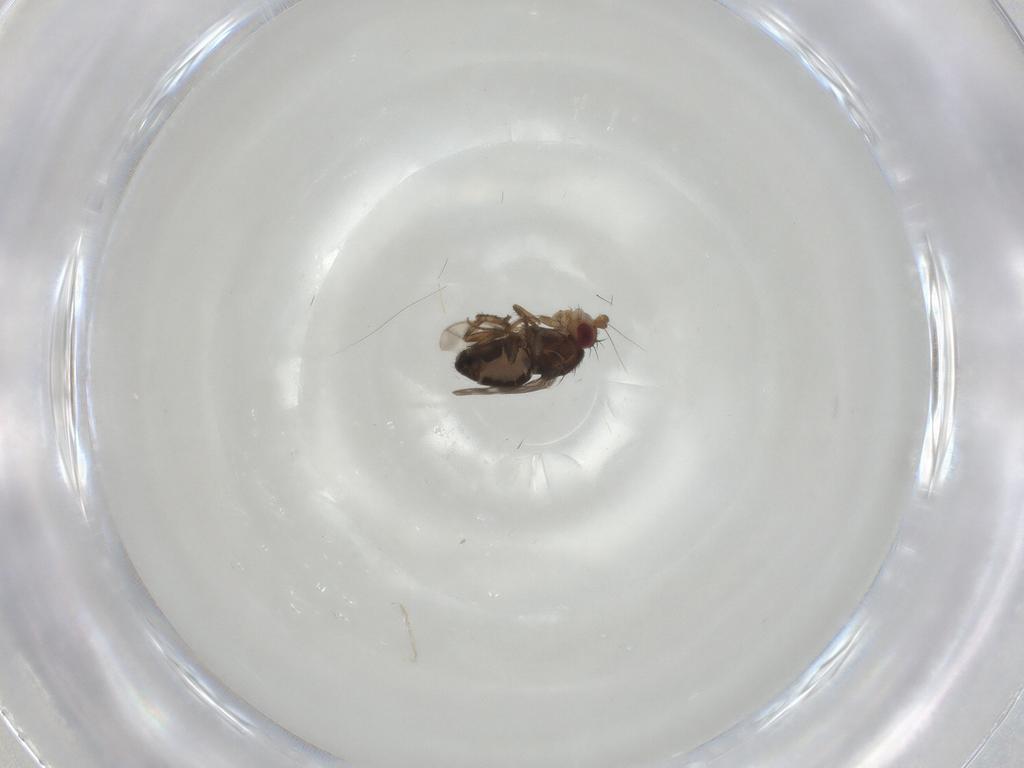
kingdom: Animalia
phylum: Arthropoda
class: Insecta
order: Diptera
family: Sphaeroceridae
